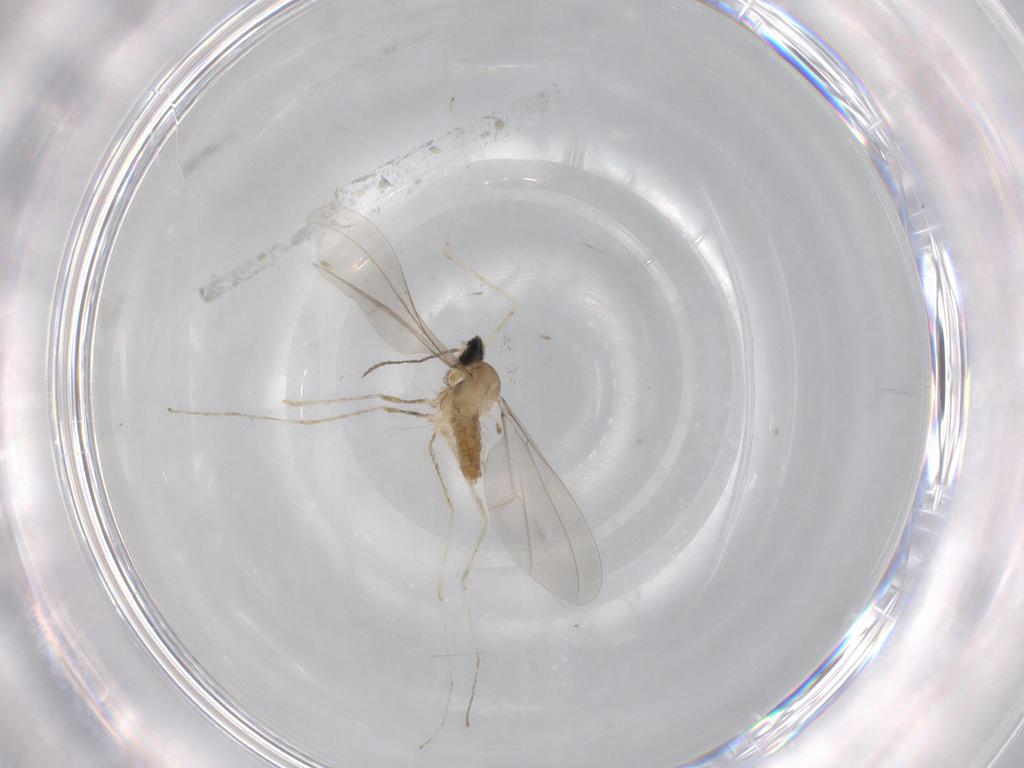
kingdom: Animalia
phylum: Arthropoda
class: Insecta
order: Diptera
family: Cecidomyiidae
